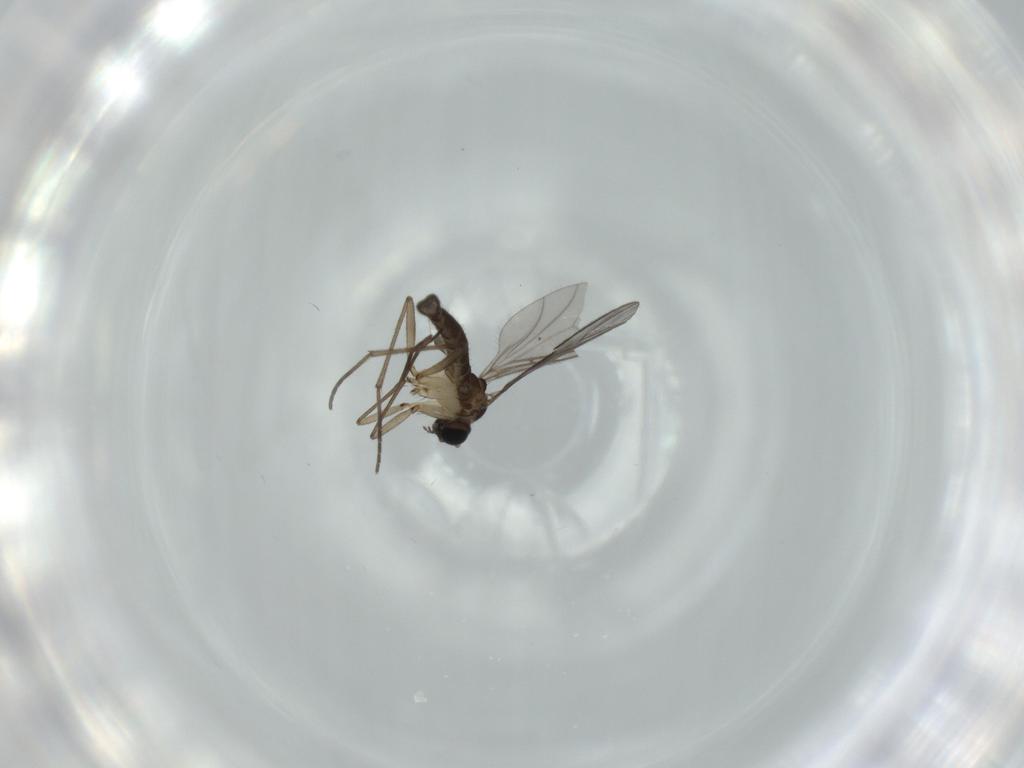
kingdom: Animalia
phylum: Arthropoda
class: Insecta
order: Diptera
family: Sciaridae
